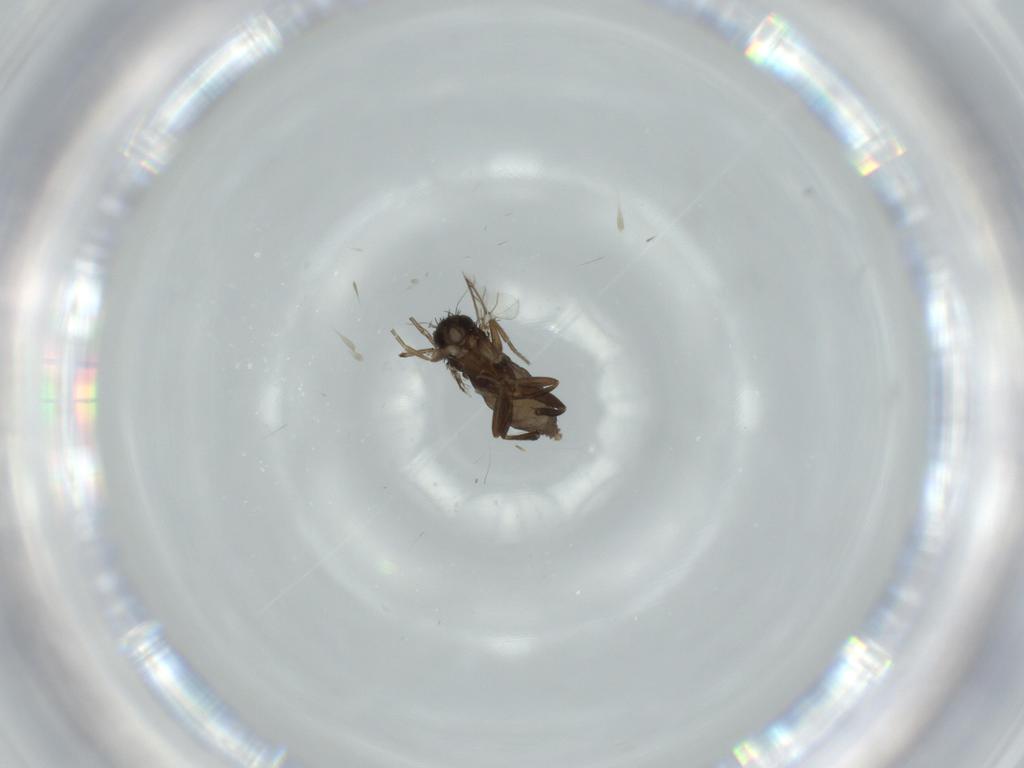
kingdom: Animalia
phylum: Arthropoda
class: Insecta
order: Diptera
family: Phoridae
